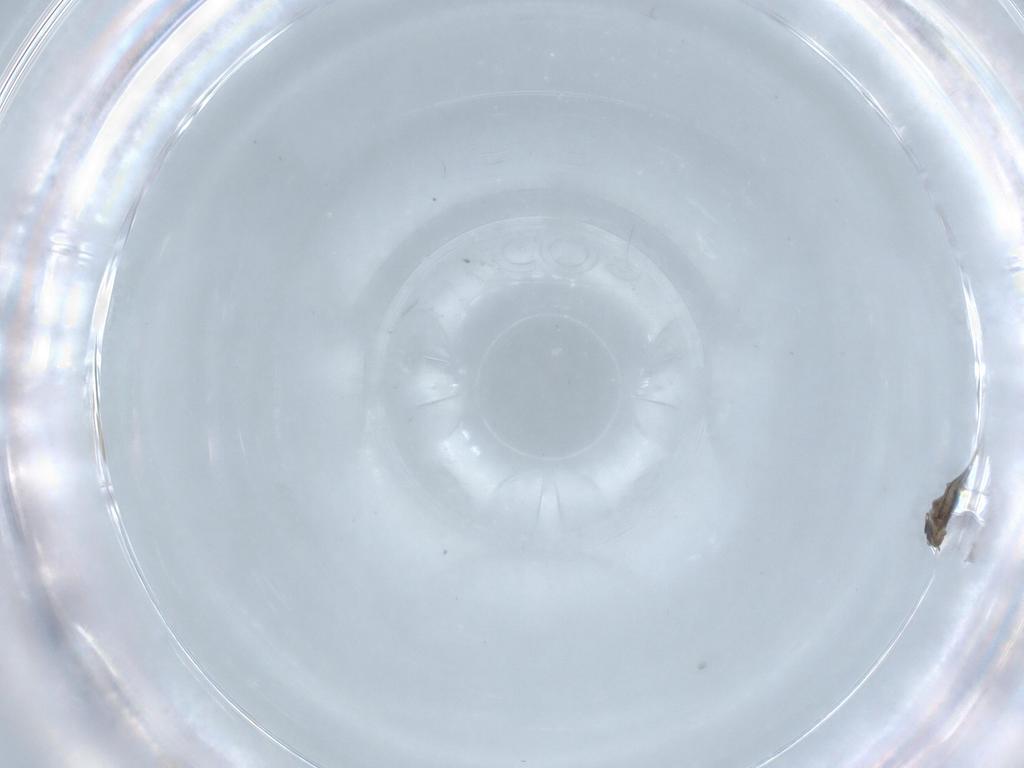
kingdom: Animalia
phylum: Arthropoda
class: Insecta
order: Diptera
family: Sciaridae
